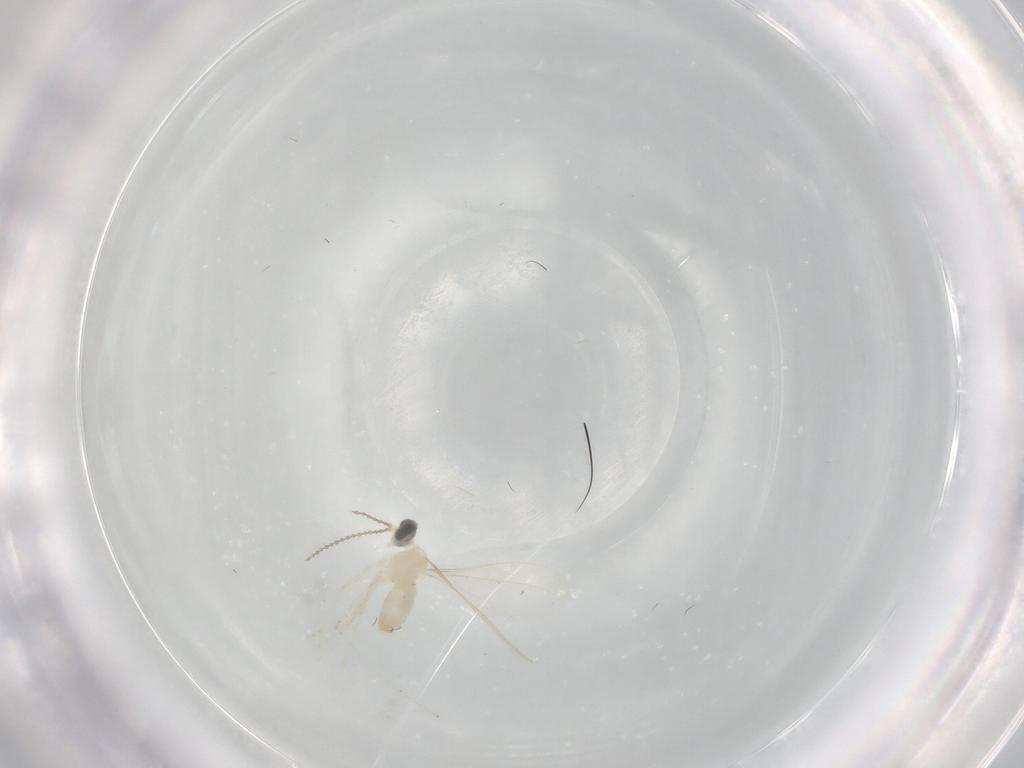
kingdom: Animalia
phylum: Arthropoda
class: Insecta
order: Diptera
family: Cecidomyiidae
